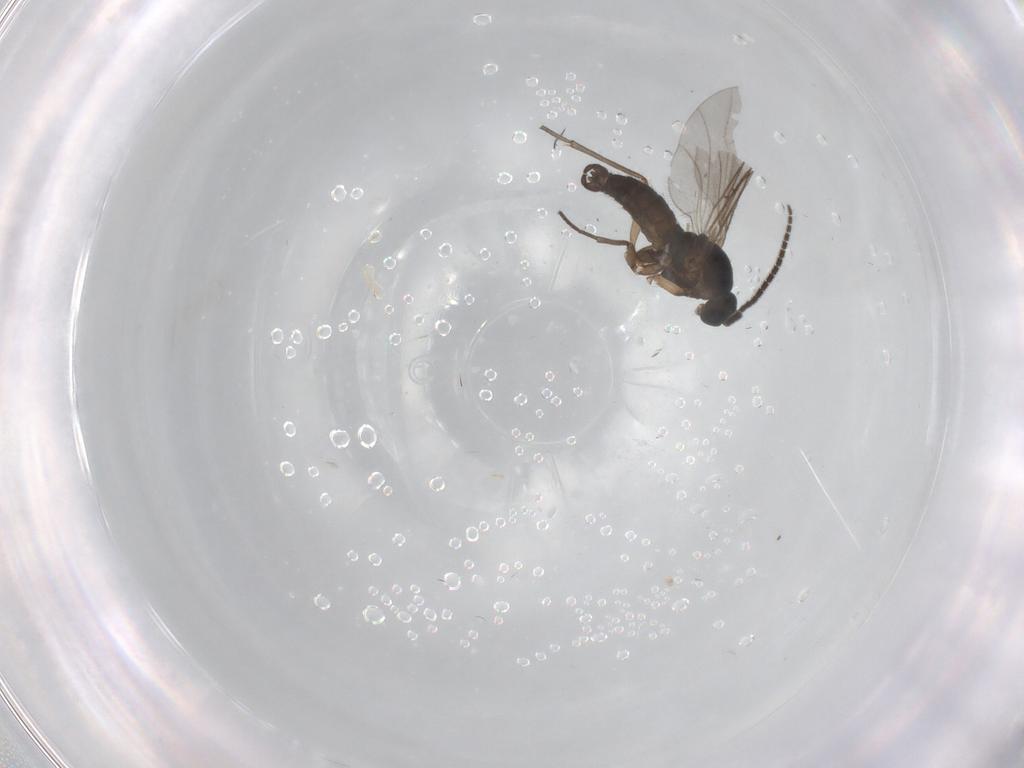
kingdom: Animalia
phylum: Arthropoda
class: Insecta
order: Diptera
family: Sciaridae
